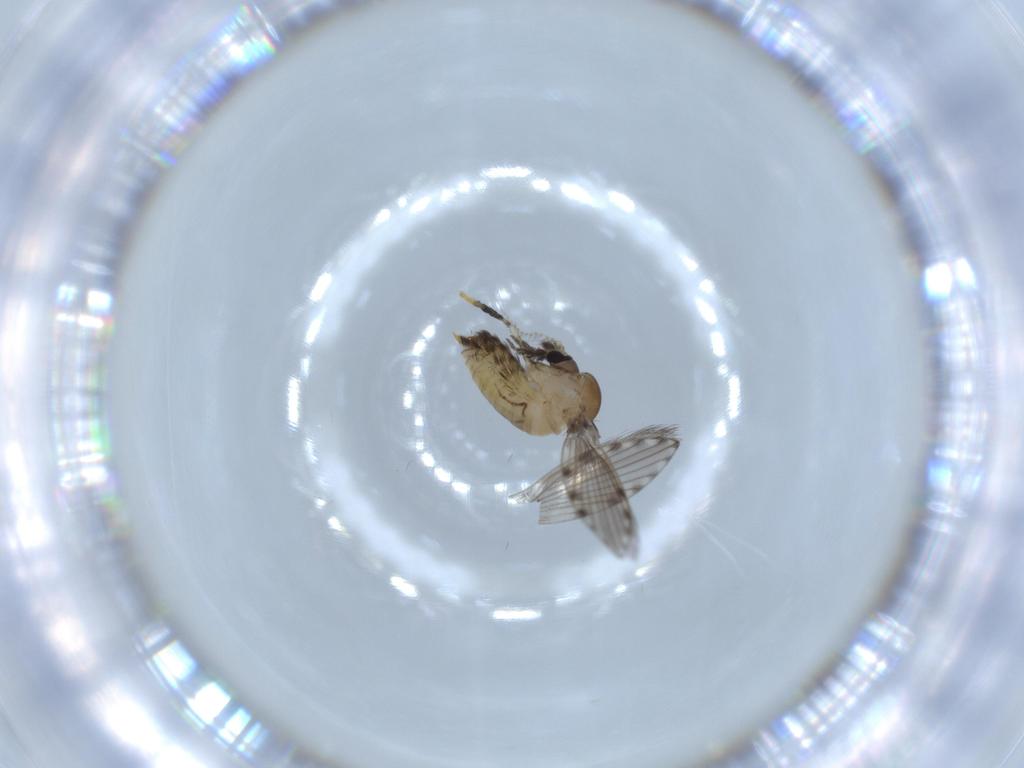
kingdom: Animalia
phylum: Arthropoda
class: Insecta
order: Diptera
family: Psychodidae
